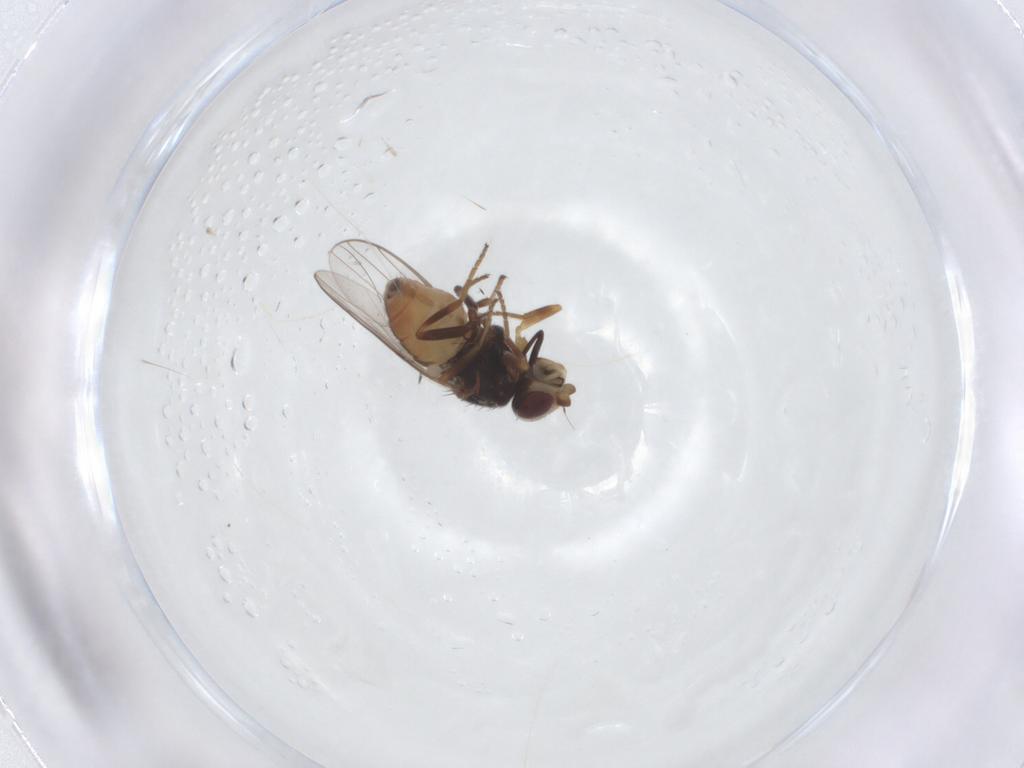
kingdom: Animalia
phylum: Arthropoda
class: Insecta
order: Diptera
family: Chloropidae
